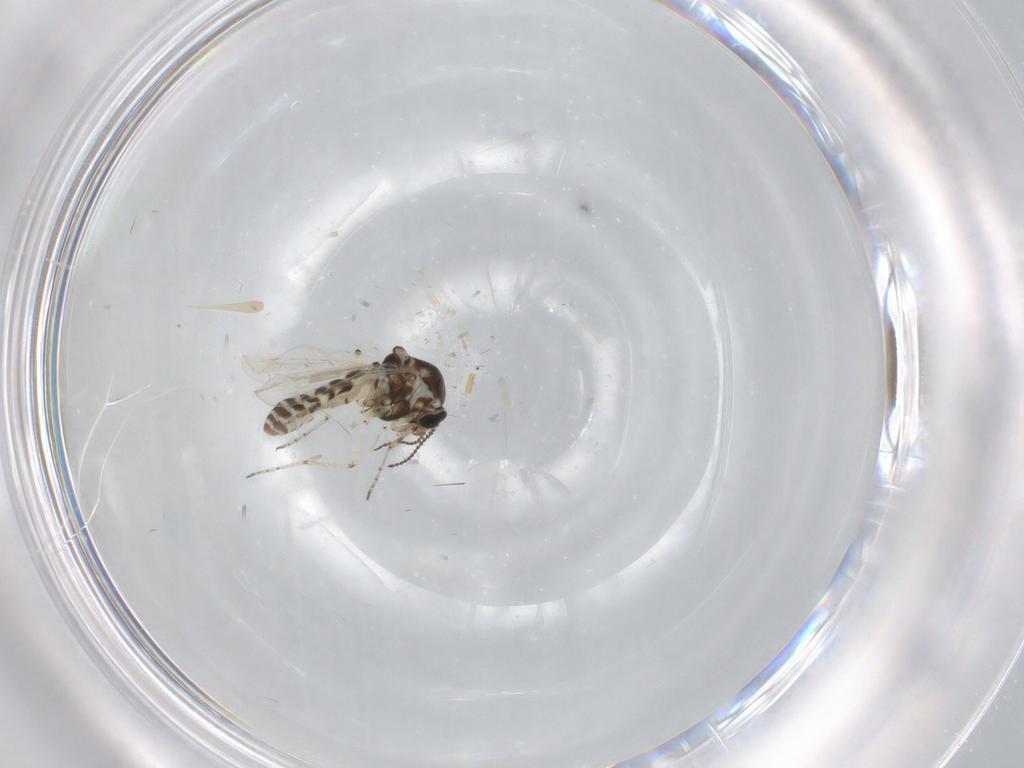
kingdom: Animalia
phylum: Arthropoda
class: Insecta
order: Diptera
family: Ceratopogonidae
